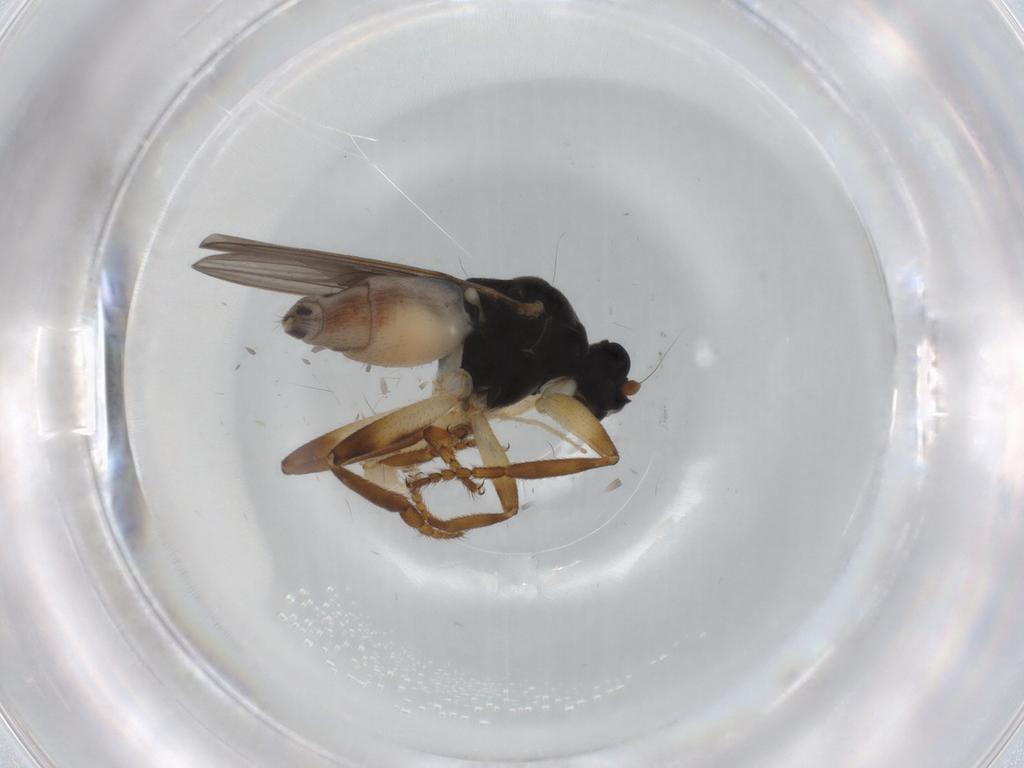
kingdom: Animalia
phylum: Arthropoda
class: Insecta
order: Diptera
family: Sphaeroceridae
